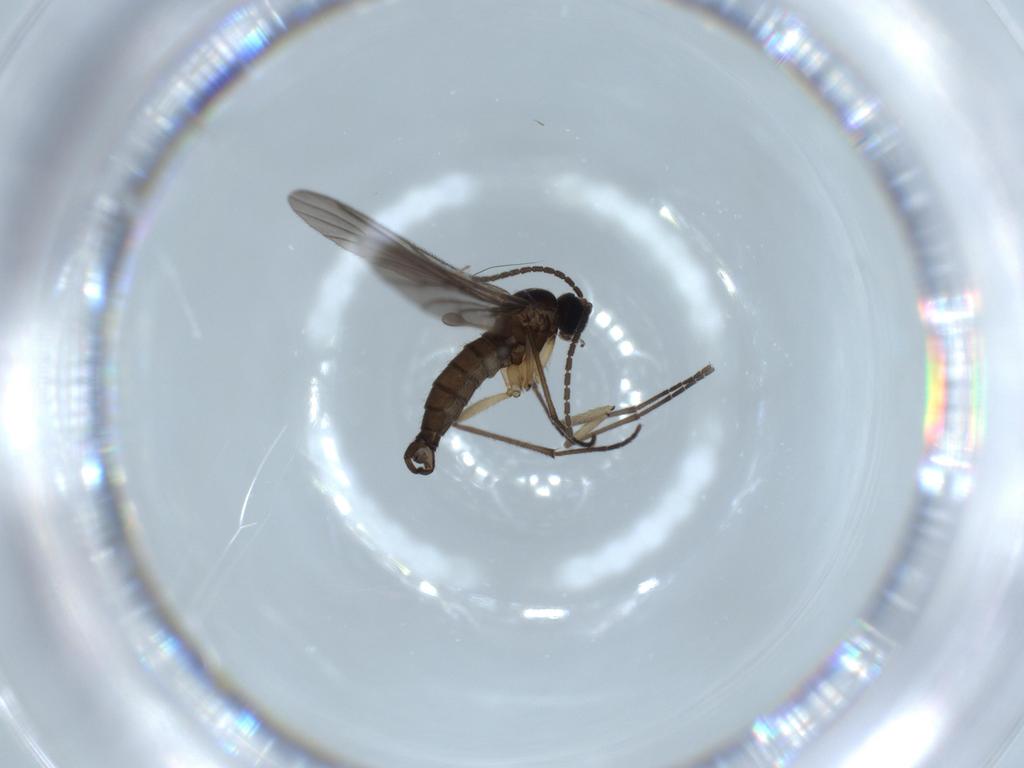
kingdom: Animalia
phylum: Arthropoda
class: Insecta
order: Diptera
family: Sciaridae
